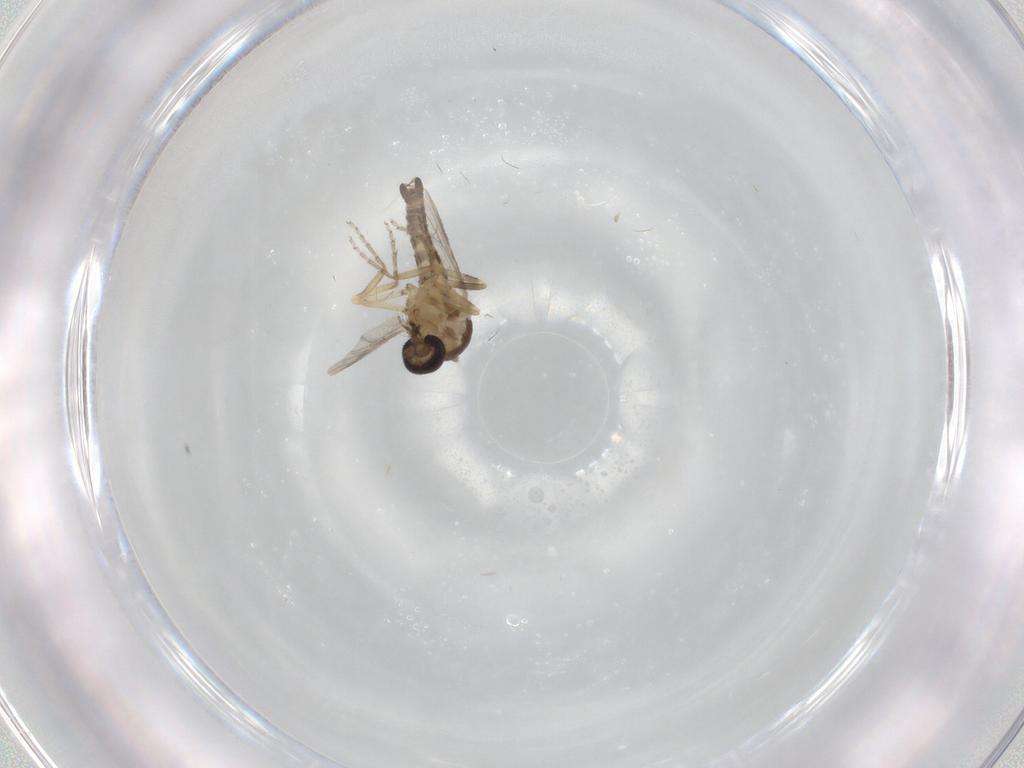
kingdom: Animalia
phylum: Arthropoda
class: Insecta
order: Diptera
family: Ceratopogonidae
